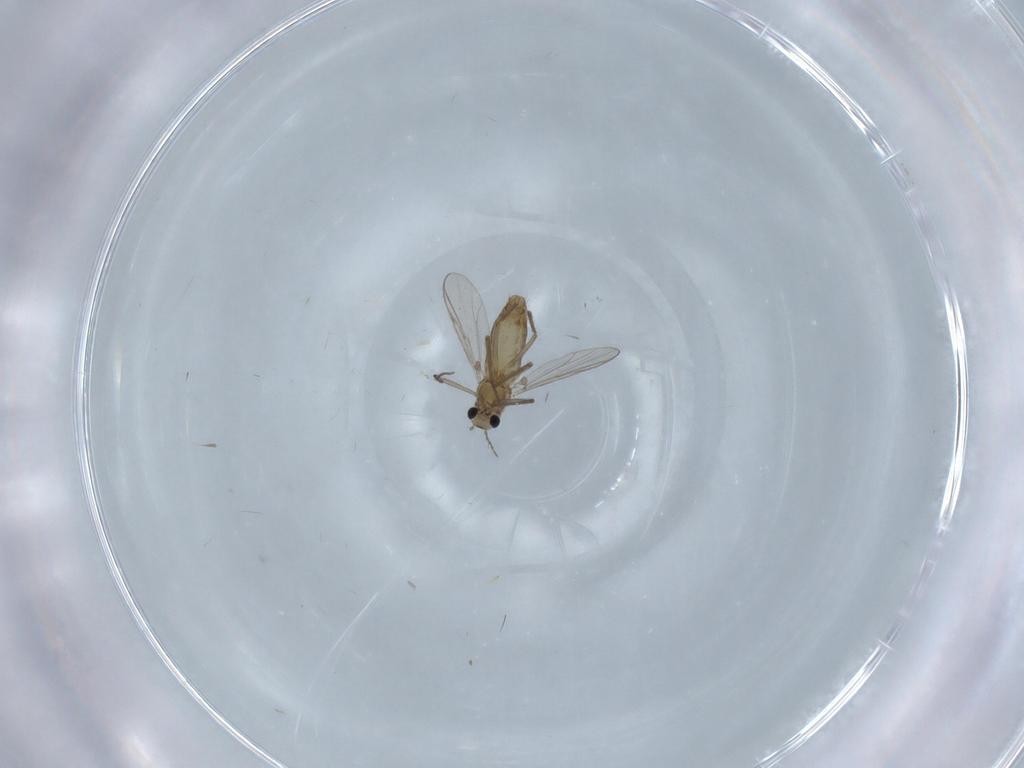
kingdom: Animalia
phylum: Arthropoda
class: Insecta
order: Diptera
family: Chironomidae
